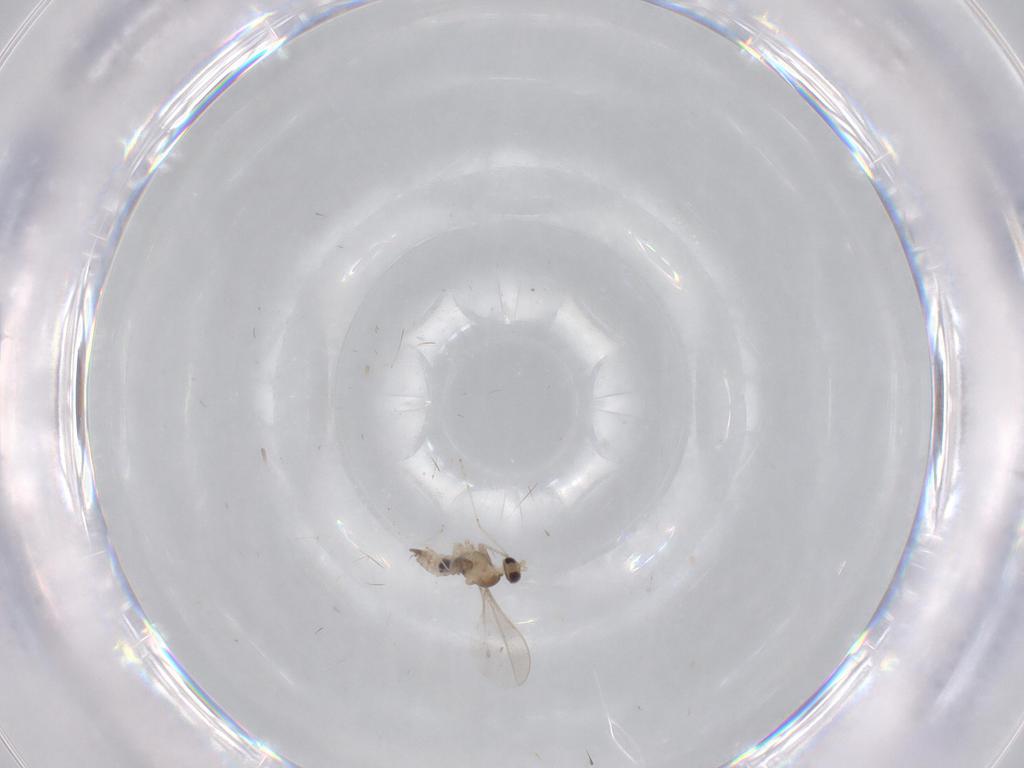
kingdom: Animalia
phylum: Arthropoda
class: Insecta
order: Diptera
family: Cecidomyiidae
